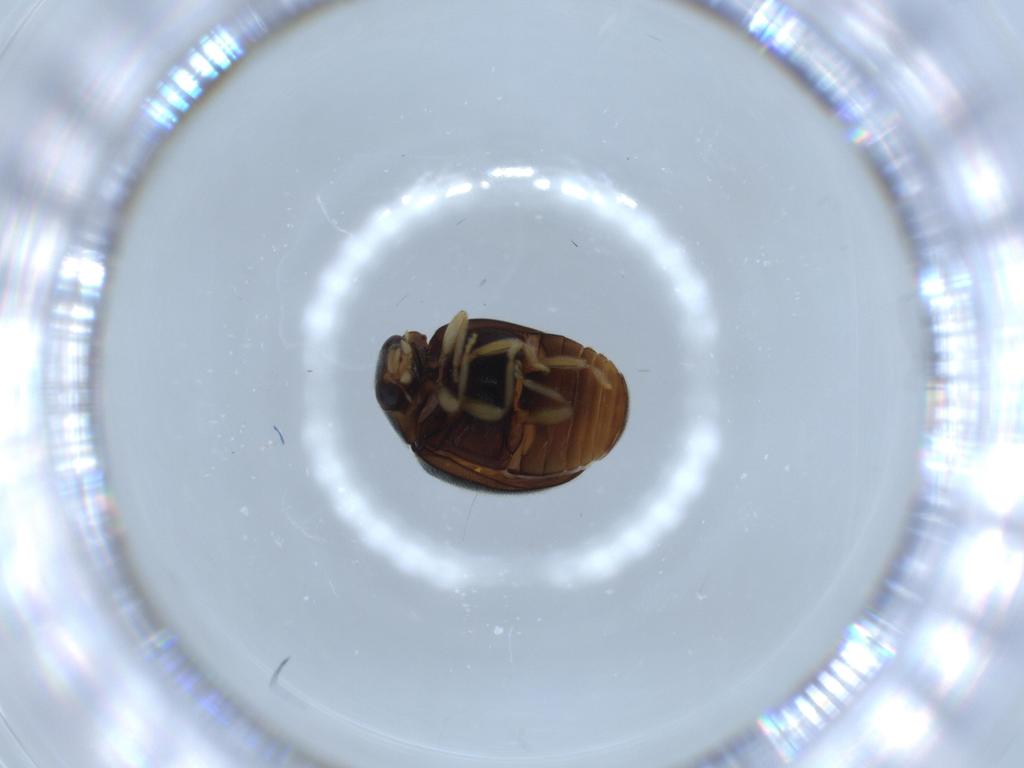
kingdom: Animalia
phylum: Arthropoda
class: Insecta
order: Coleoptera
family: Coccinellidae
